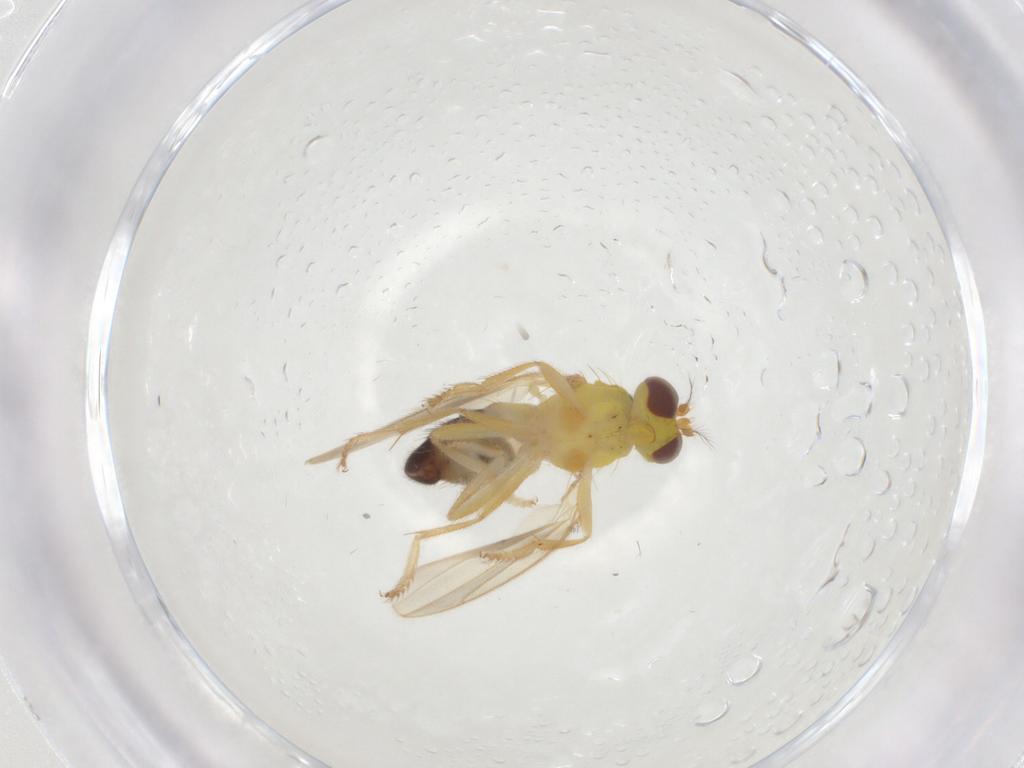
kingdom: Animalia
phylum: Arthropoda
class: Insecta
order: Diptera
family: Periscelididae
